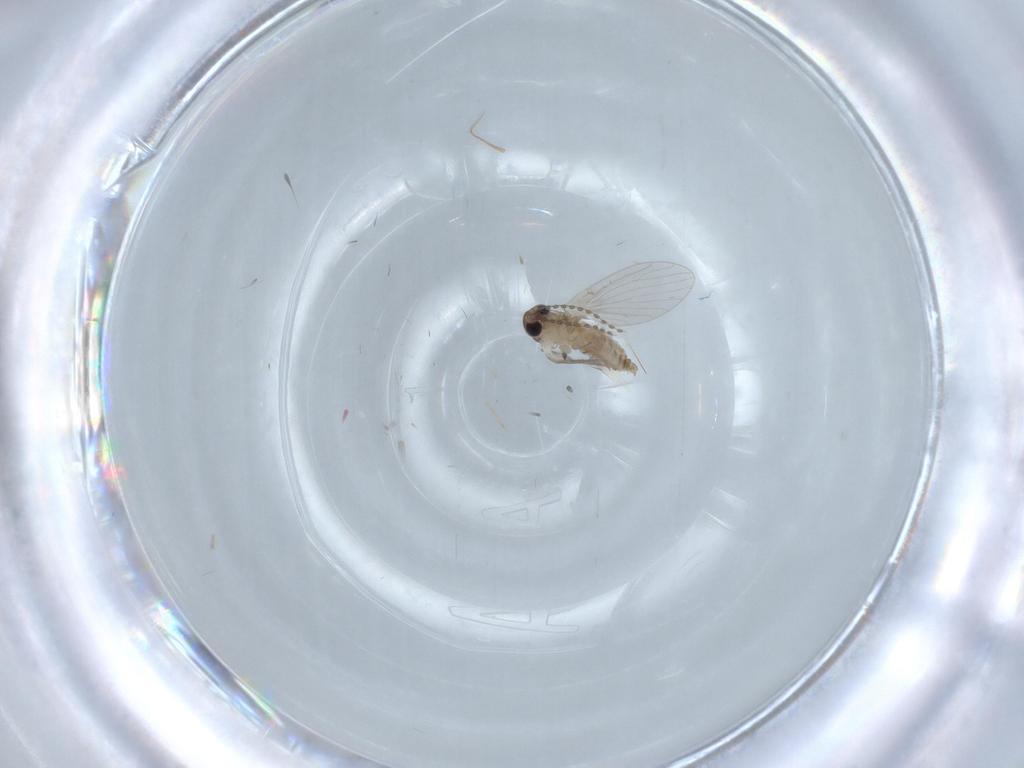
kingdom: Animalia
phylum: Arthropoda
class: Insecta
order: Diptera
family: Psychodidae
